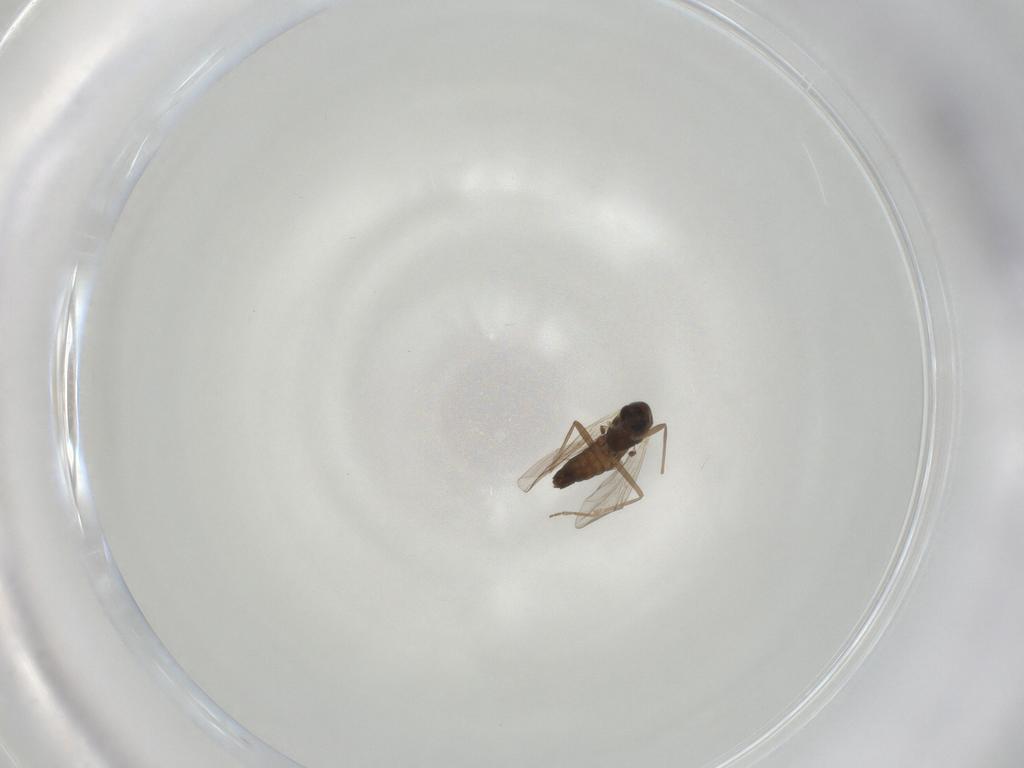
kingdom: Animalia
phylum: Arthropoda
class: Insecta
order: Diptera
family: Chironomidae
